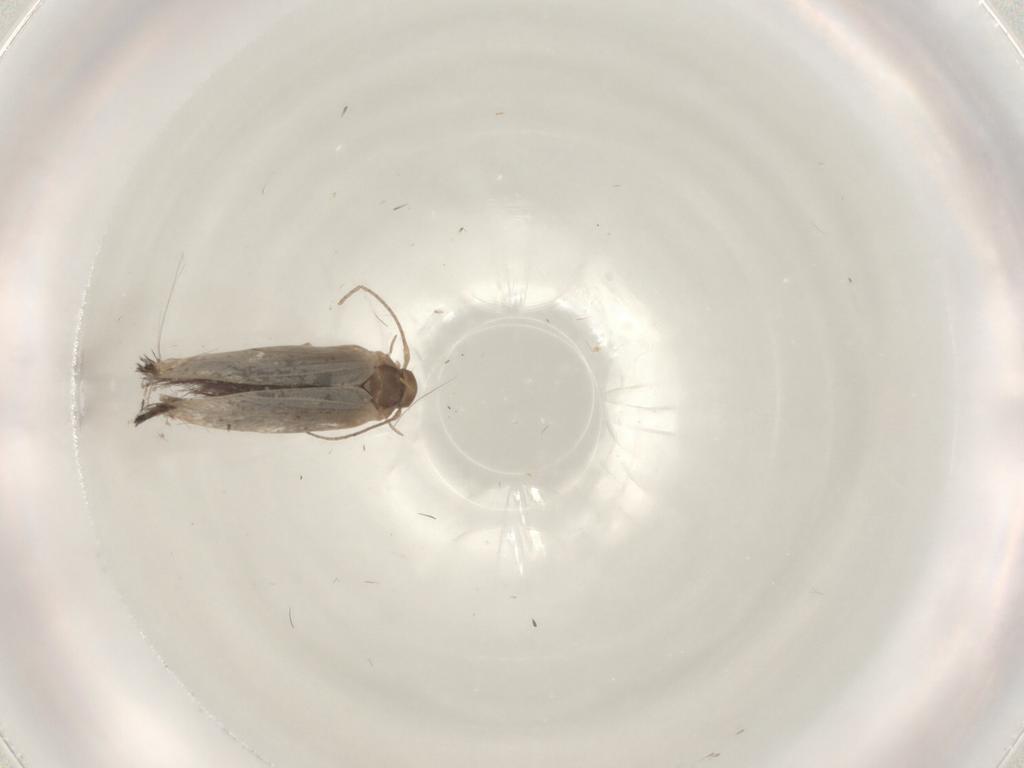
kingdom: Animalia
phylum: Arthropoda
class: Insecta
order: Lepidoptera
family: Elachistidae
